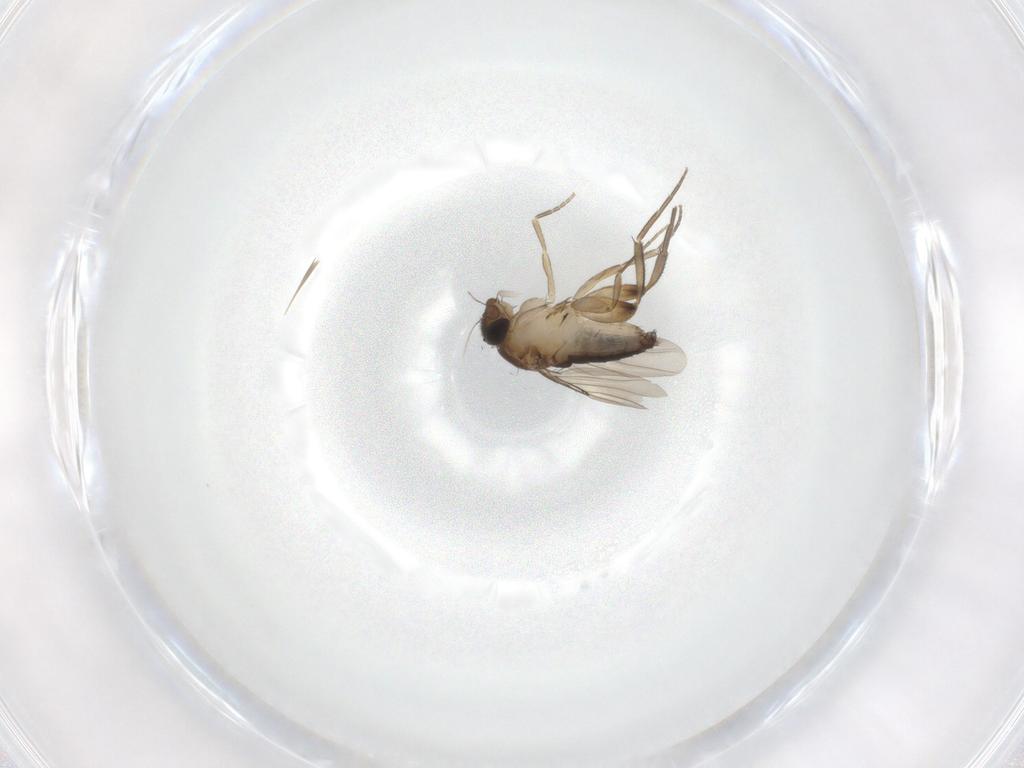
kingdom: Animalia
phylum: Arthropoda
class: Insecta
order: Diptera
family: Phoridae
